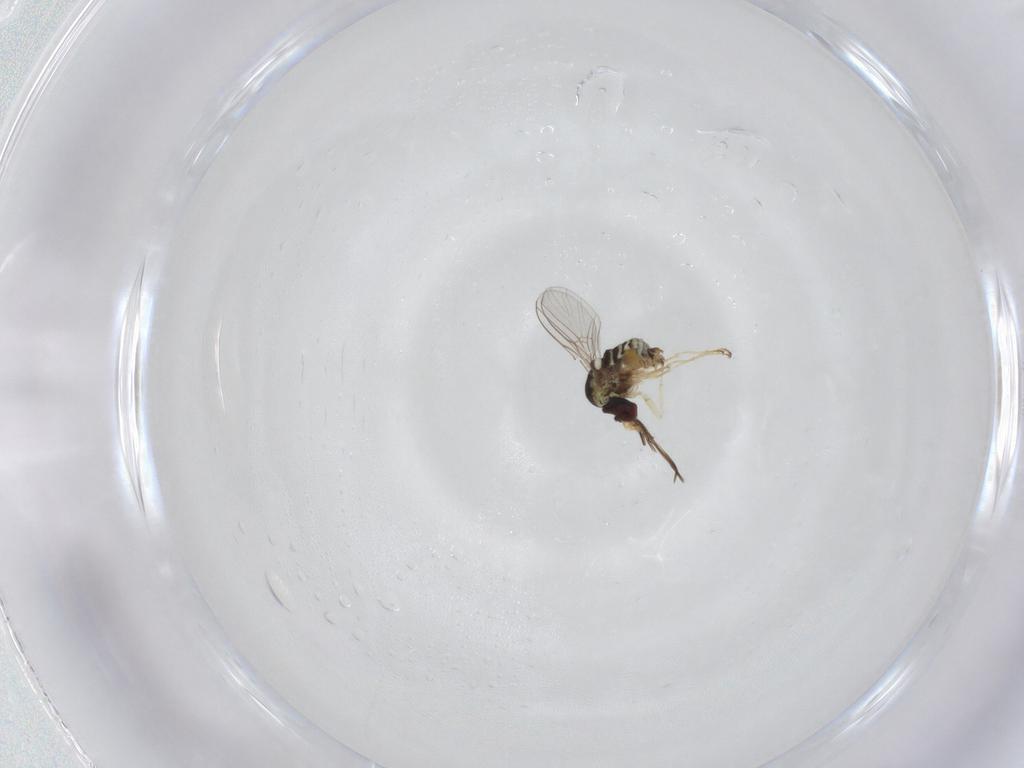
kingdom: Animalia
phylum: Arthropoda
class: Insecta
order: Diptera
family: Bombyliidae
